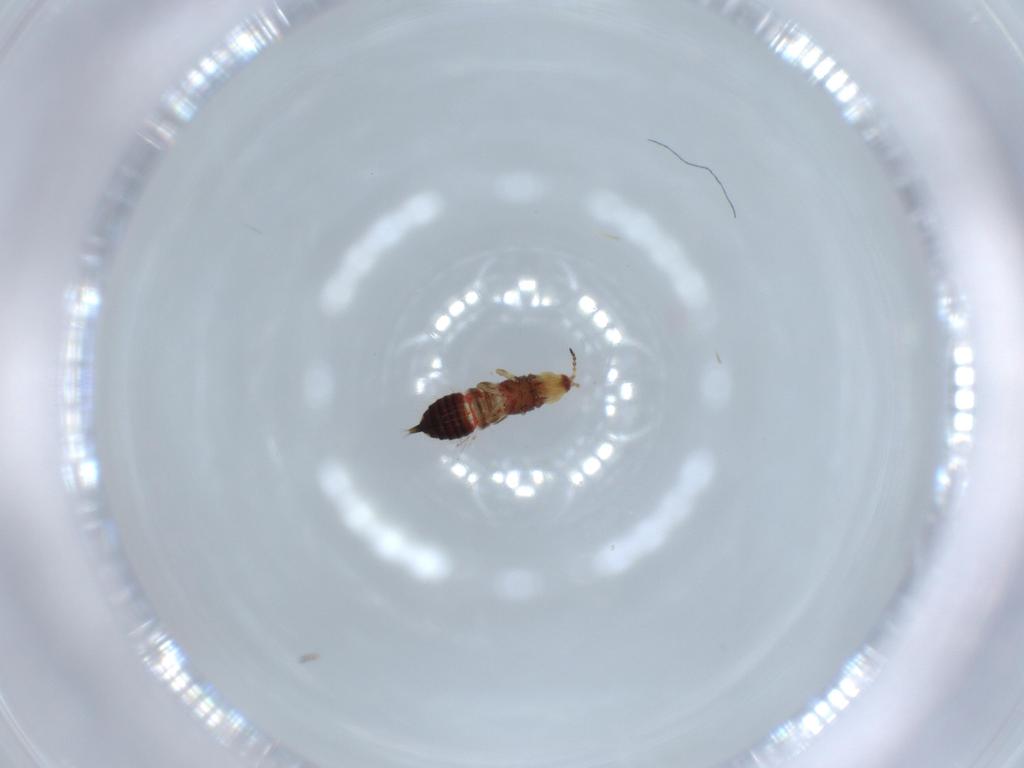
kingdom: Animalia
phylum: Arthropoda
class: Insecta
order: Thysanoptera
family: Phlaeothripidae
